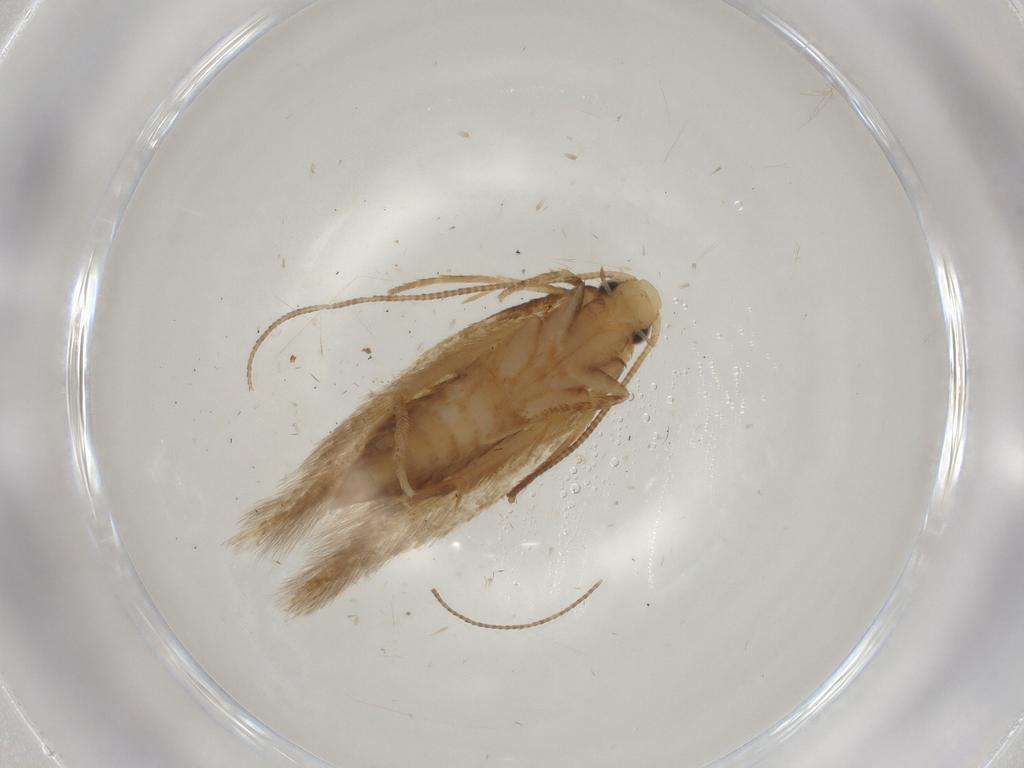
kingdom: Animalia
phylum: Arthropoda
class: Insecta
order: Lepidoptera
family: Tineidae
